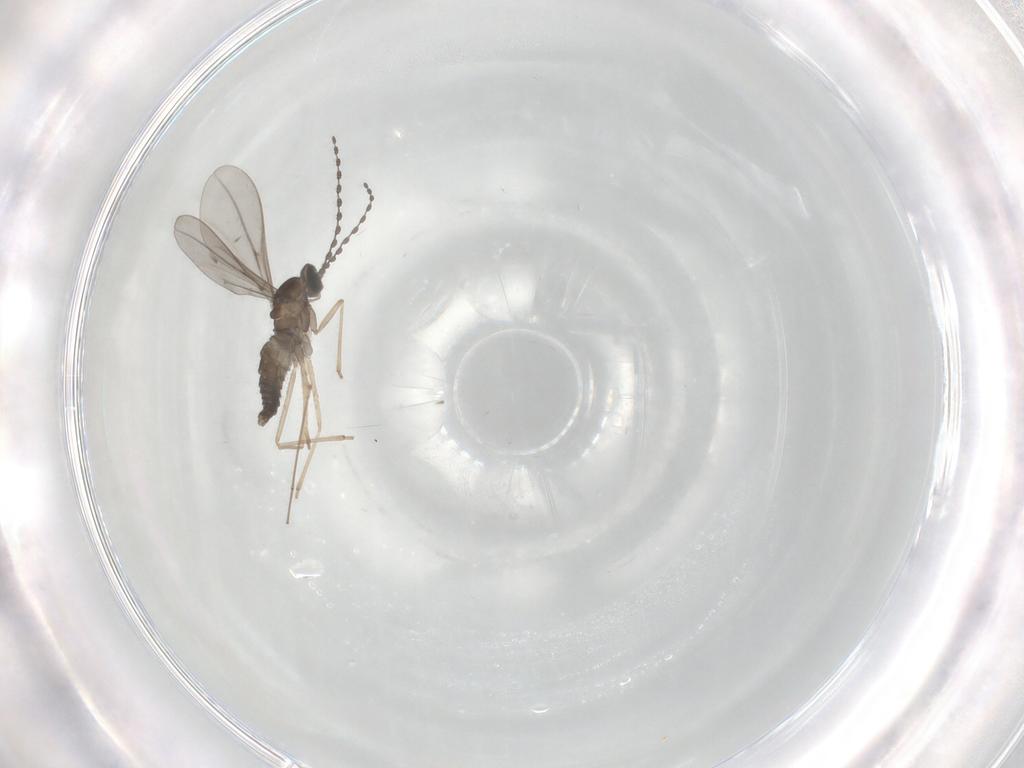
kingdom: Animalia
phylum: Arthropoda
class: Insecta
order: Diptera
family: Cecidomyiidae
